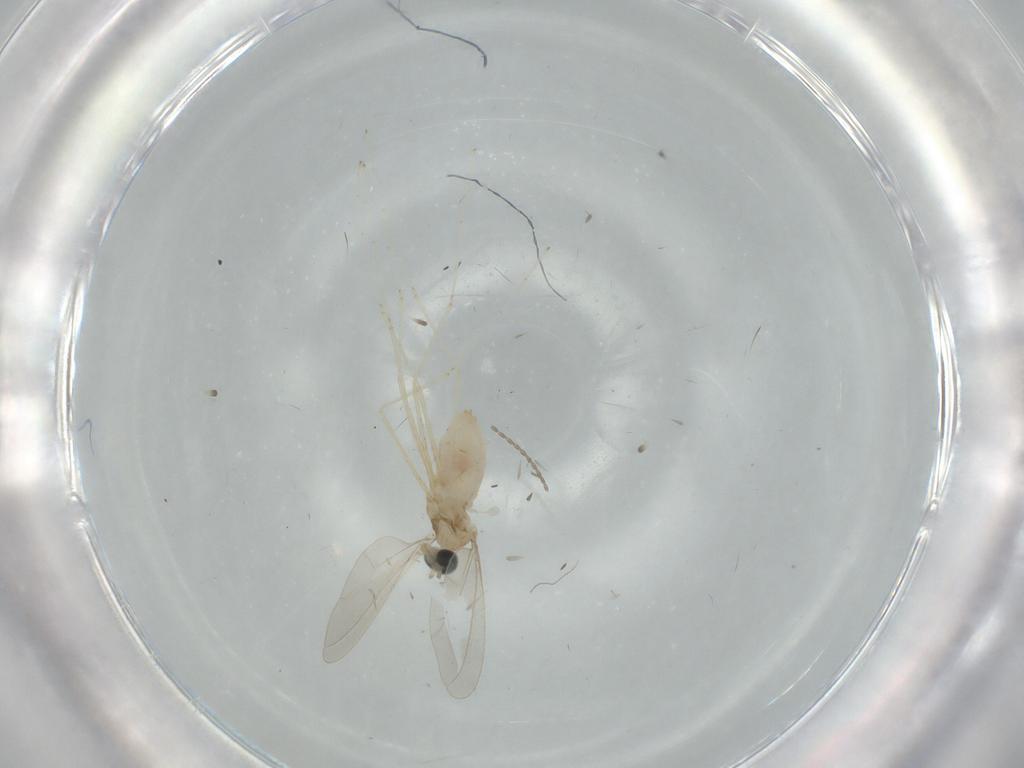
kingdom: Animalia
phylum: Arthropoda
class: Insecta
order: Diptera
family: Cecidomyiidae
